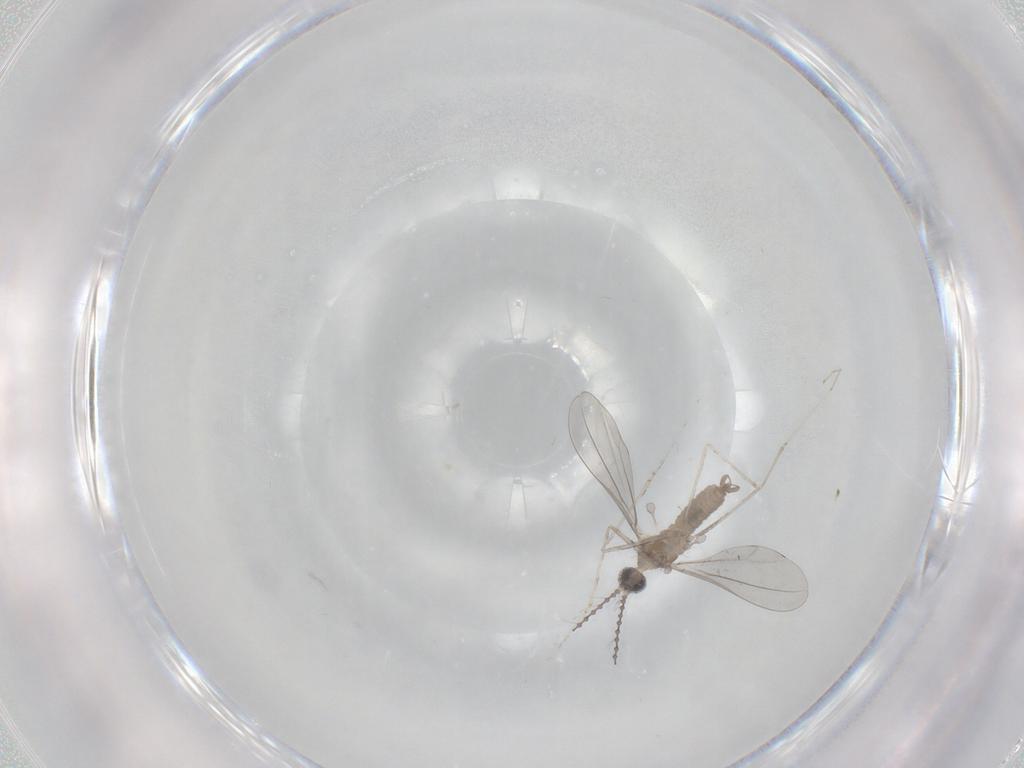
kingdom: Animalia
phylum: Arthropoda
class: Insecta
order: Diptera
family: Cecidomyiidae
